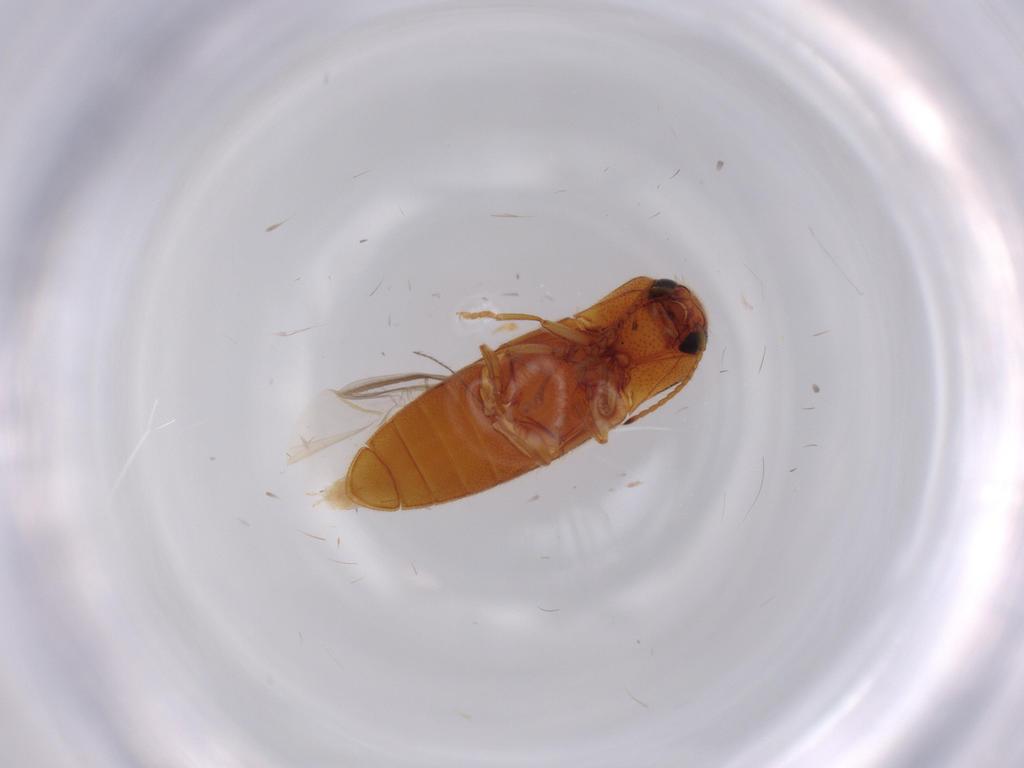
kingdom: Animalia
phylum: Arthropoda
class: Insecta
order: Coleoptera
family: Elateridae
